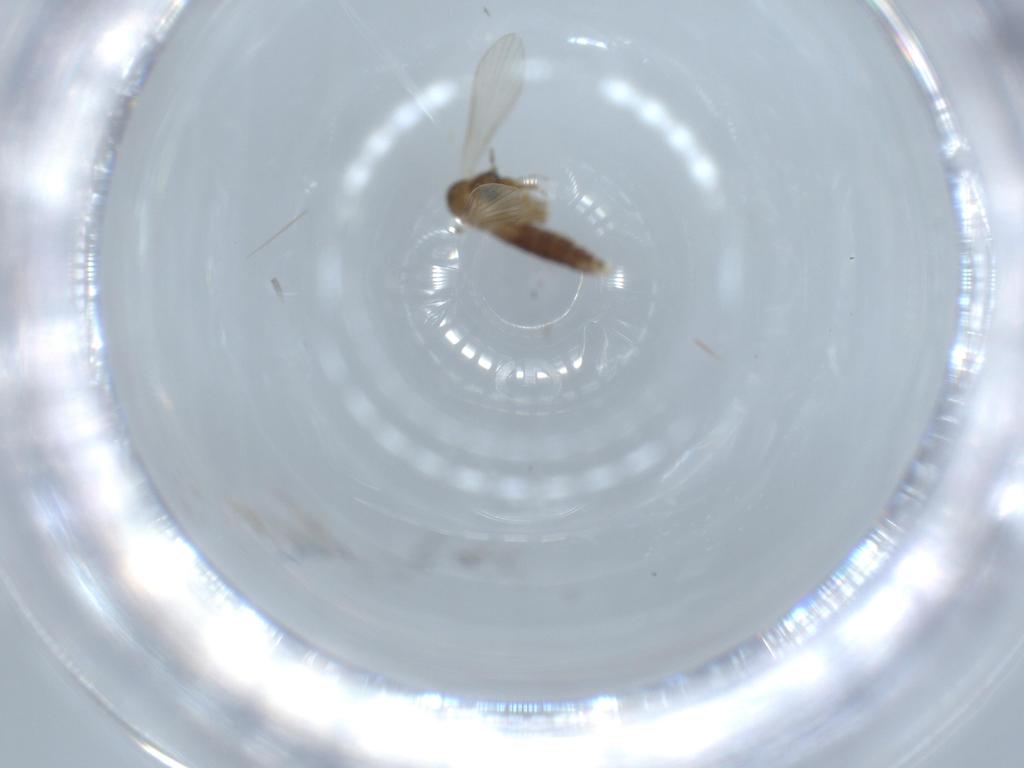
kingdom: Animalia
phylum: Arthropoda
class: Insecta
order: Diptera
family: Psychodidae
